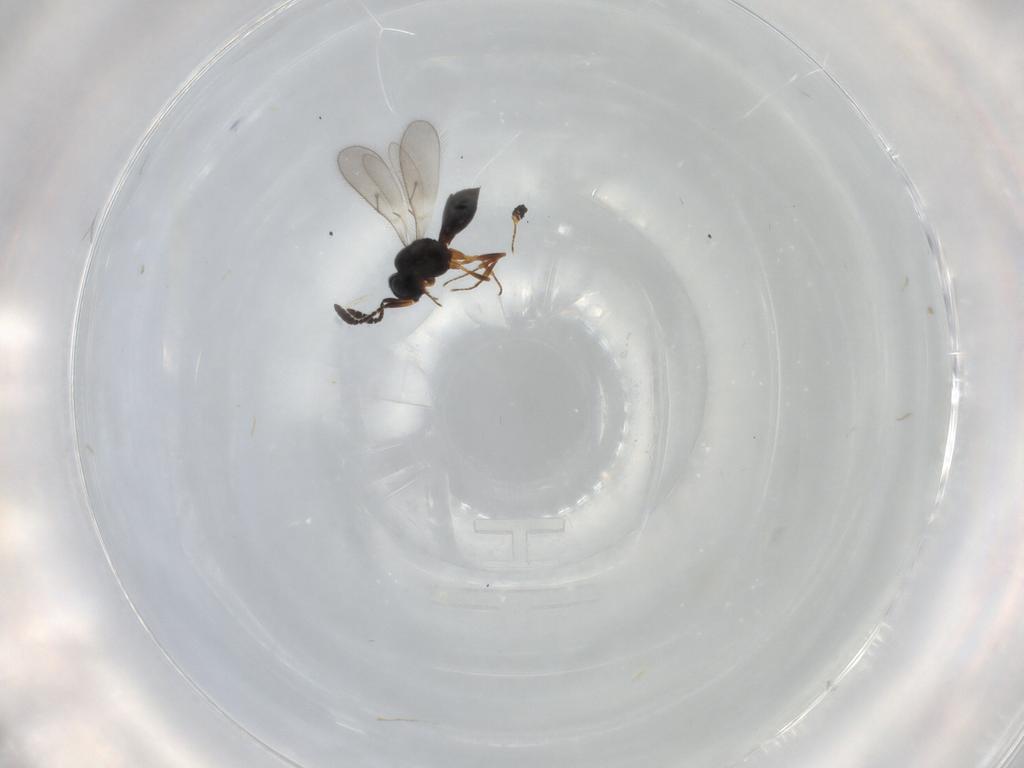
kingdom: Animalia
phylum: Arthropoda
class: Insecta
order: Hymenoptera
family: Scelionidae
